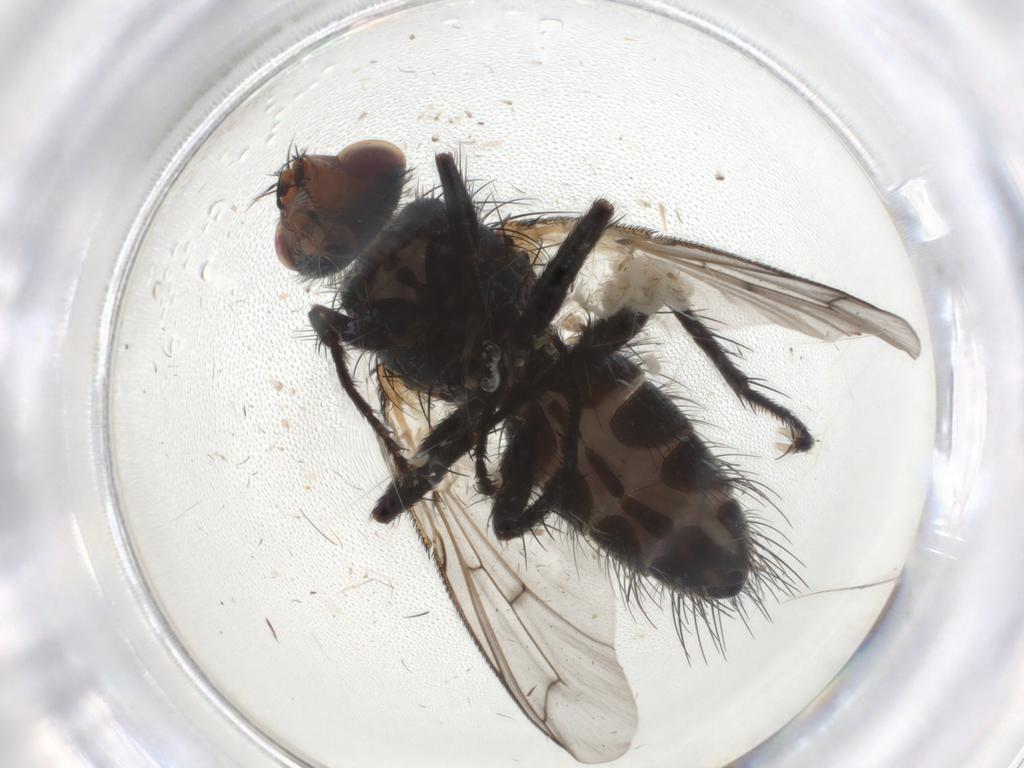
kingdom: Animalia
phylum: Arthropoda
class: Insecta
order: Diptera
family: Tachinidae
